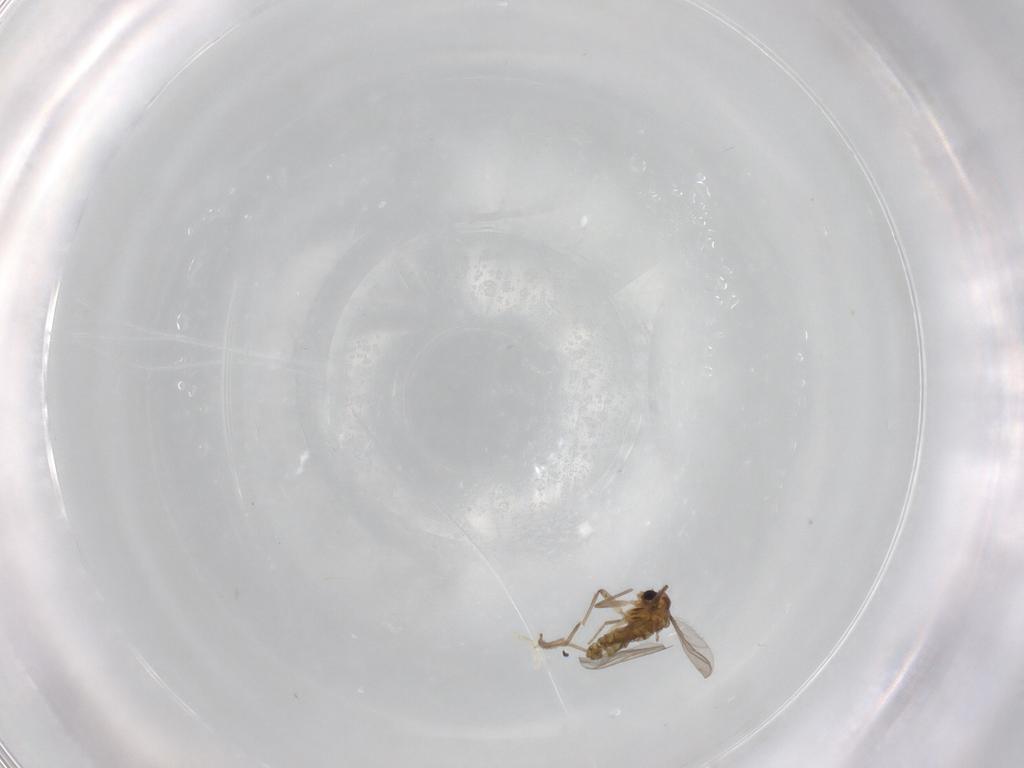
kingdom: Animalia
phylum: Arthropoda
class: Insecta
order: Diptera
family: Chironomidae
